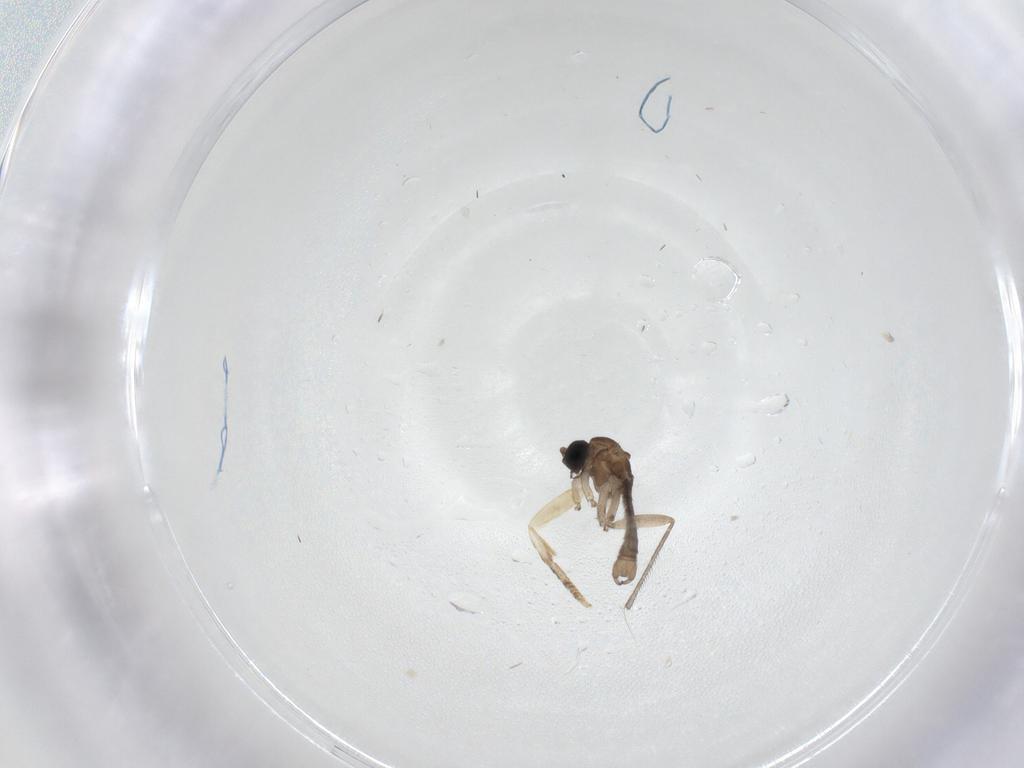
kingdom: Animalia
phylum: Arthropoda
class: Insecta
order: Diptera
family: Sciaridae
